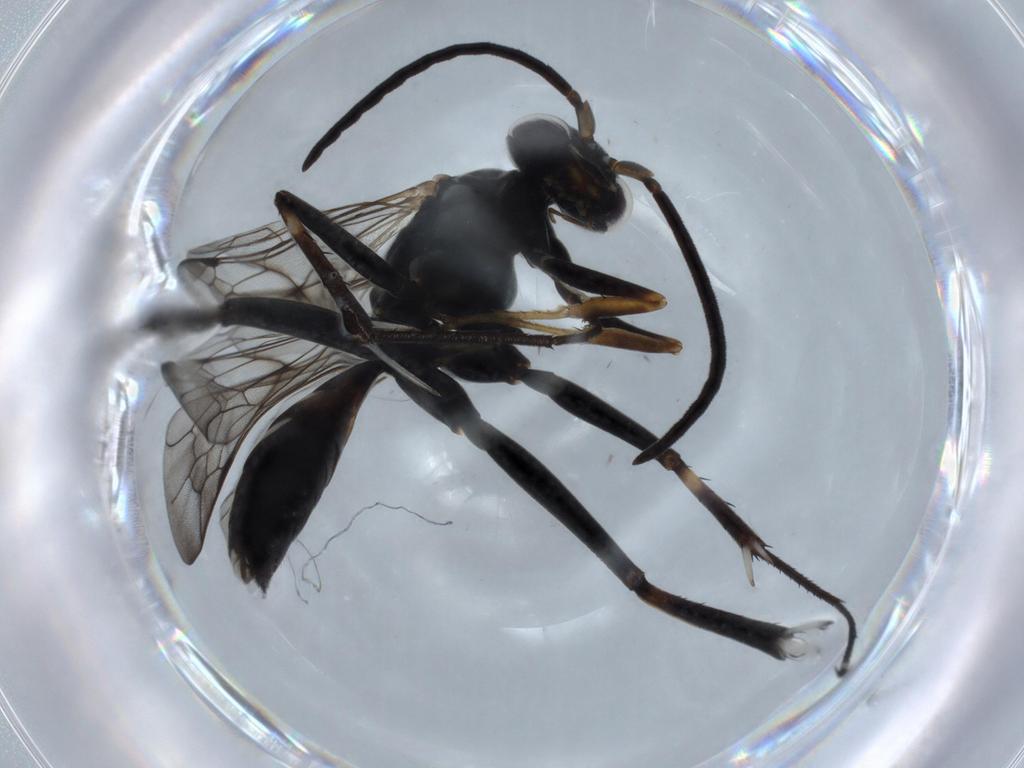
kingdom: Animalia
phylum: Arthropoda
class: Insecta
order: Hymenoptera
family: Pompilidae
